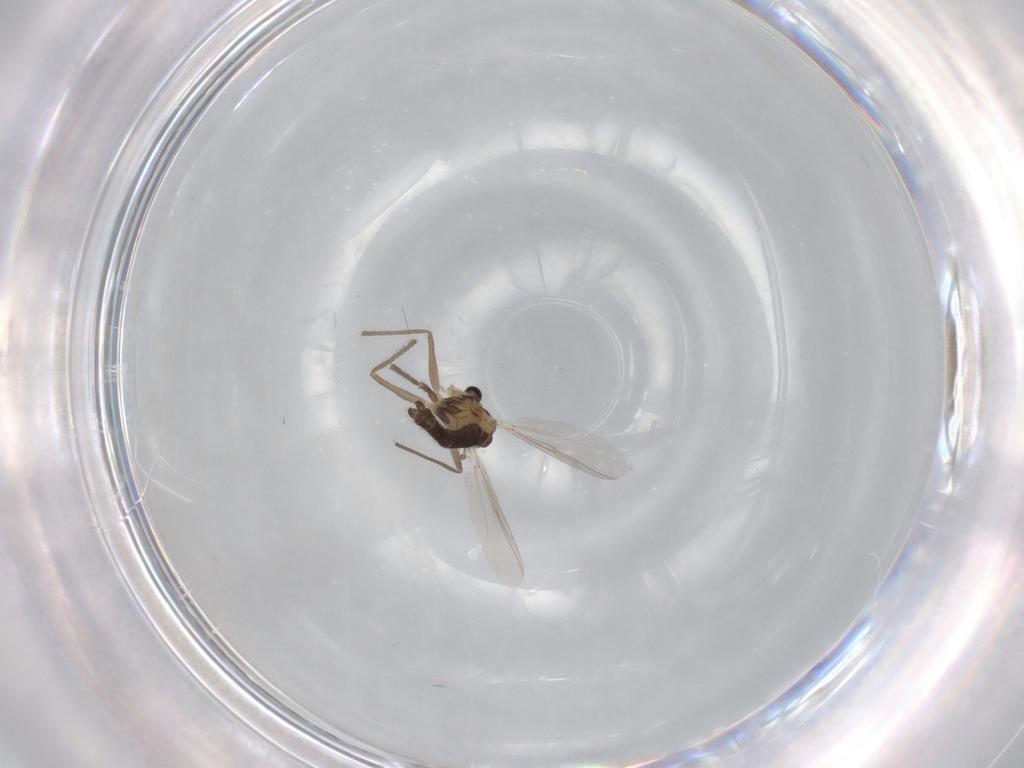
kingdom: Animalia
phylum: Arthropoda
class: Insecta
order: Diptera
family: Chironomidae
